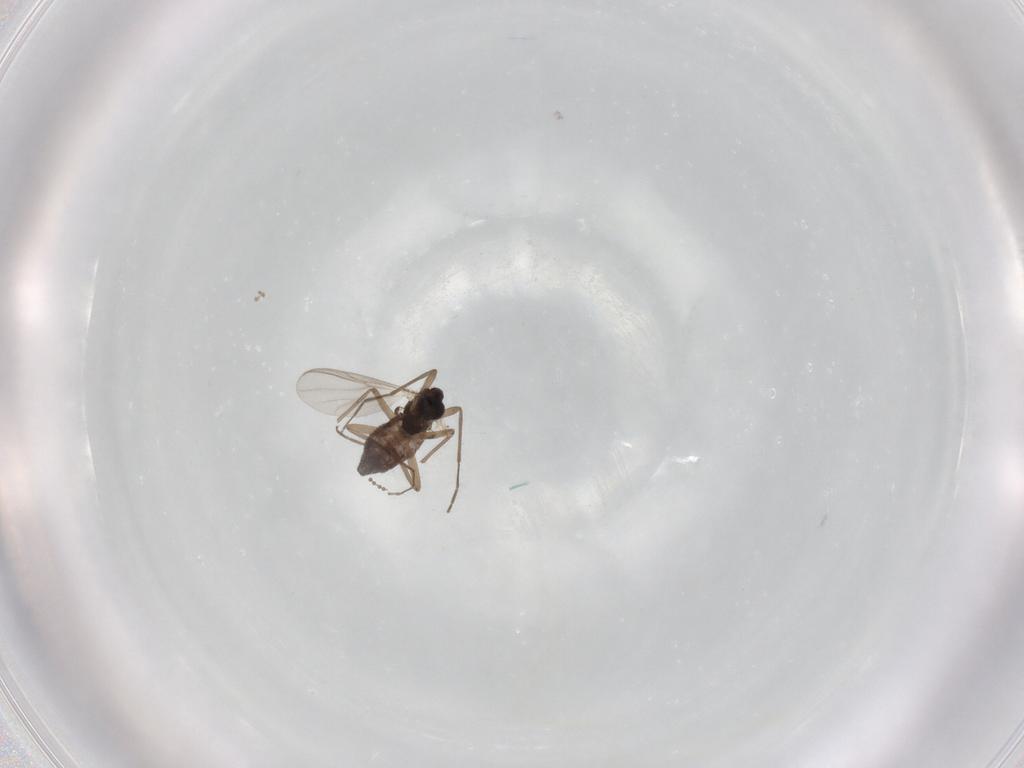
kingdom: Animalia
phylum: Arthropoda
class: Insecta
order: Diptera
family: Chironomidae
